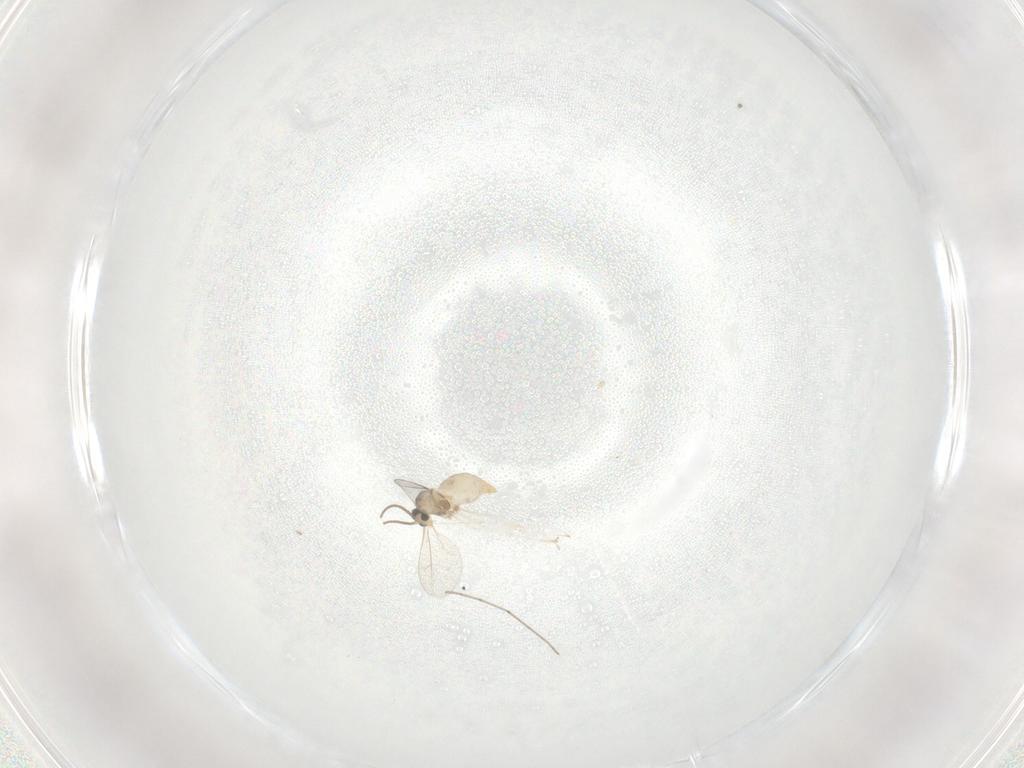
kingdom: Animalia
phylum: Arthropoda
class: Insecta
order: Diptera
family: Cecidomyiidae
